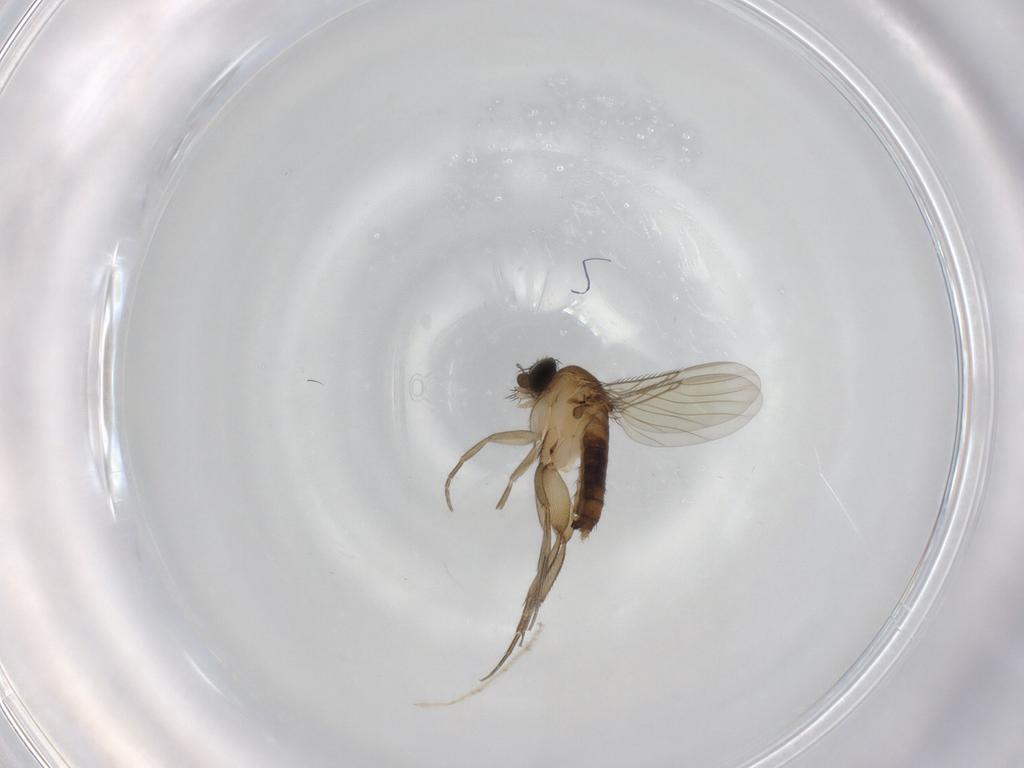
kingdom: Animalia
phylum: Arthropoda
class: Insecta
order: Diptera
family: Phoridae
